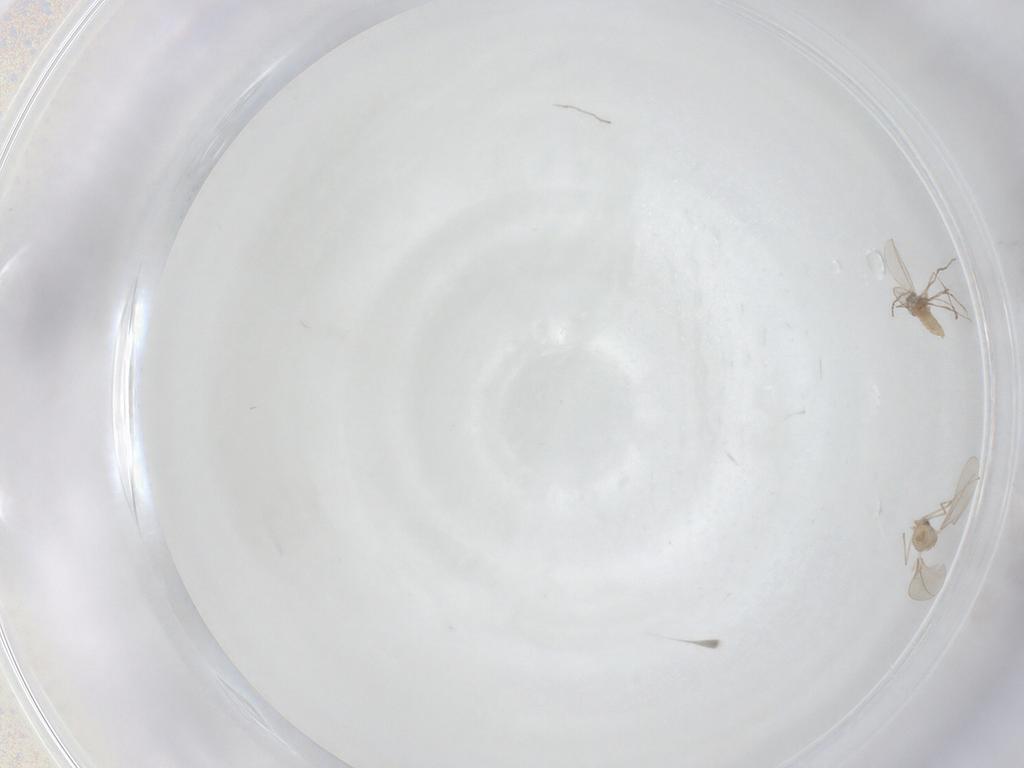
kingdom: Animalia
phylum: Arthropoda
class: Insecta
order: Diptera
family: Cecidomyiidae
